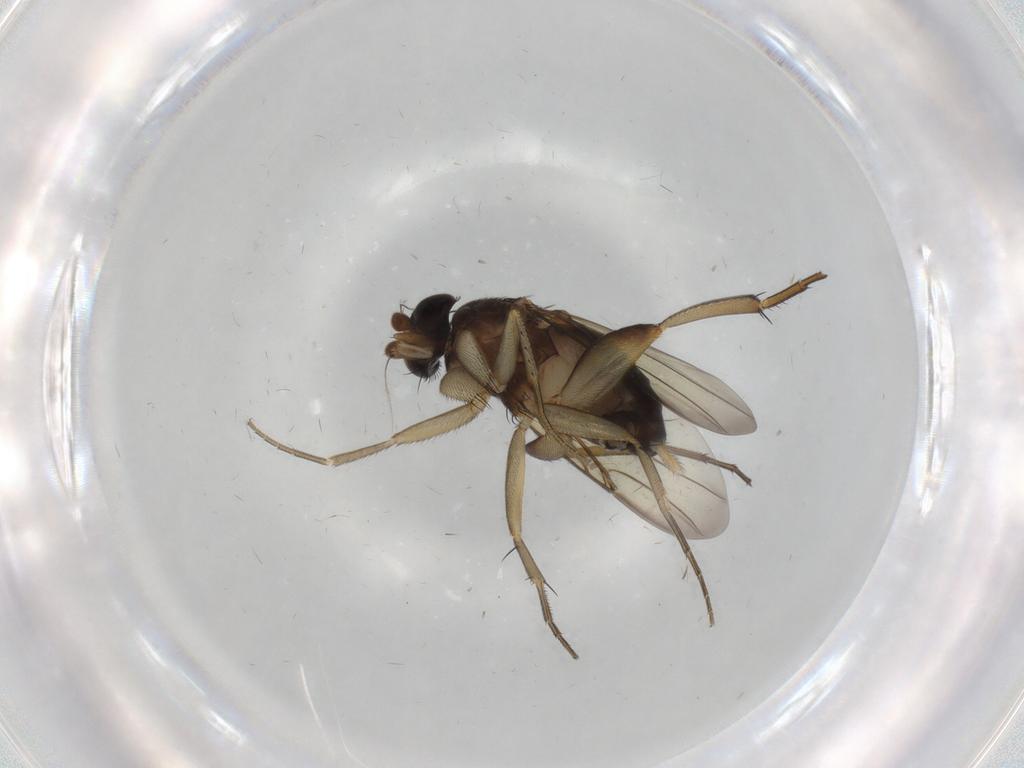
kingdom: Animalia
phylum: Arthropoda
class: Insecta
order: Diptera
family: Phoridae
